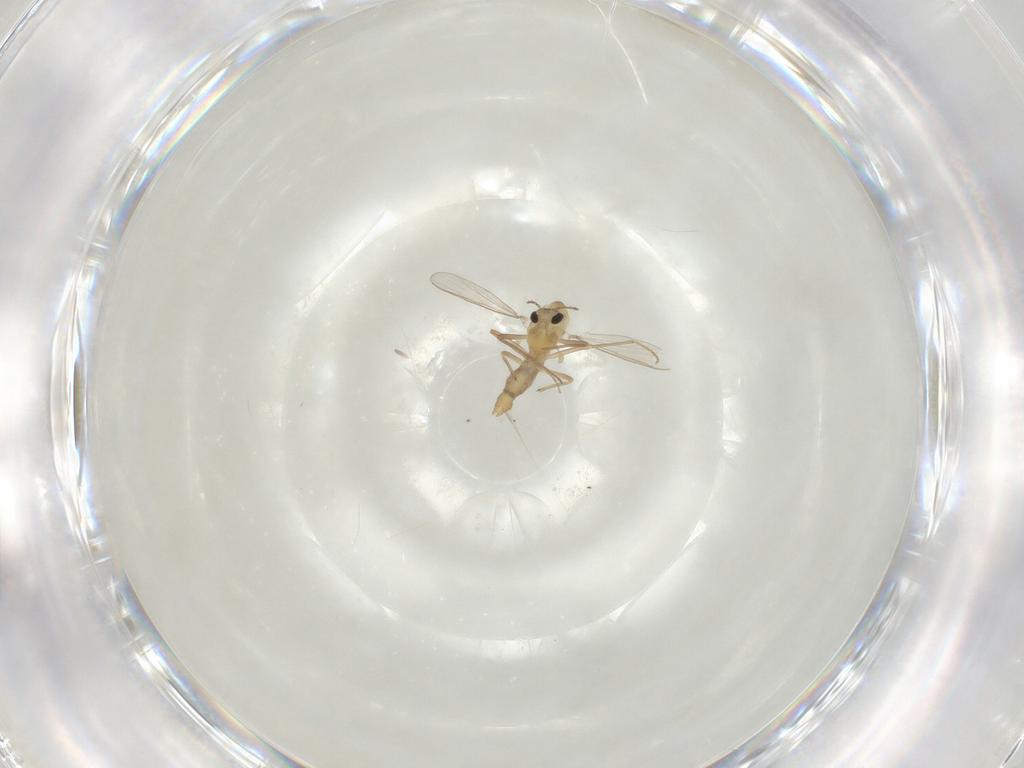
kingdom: Animalia
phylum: Arthropoda
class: Insecta
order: Diptera
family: Chironomidae
